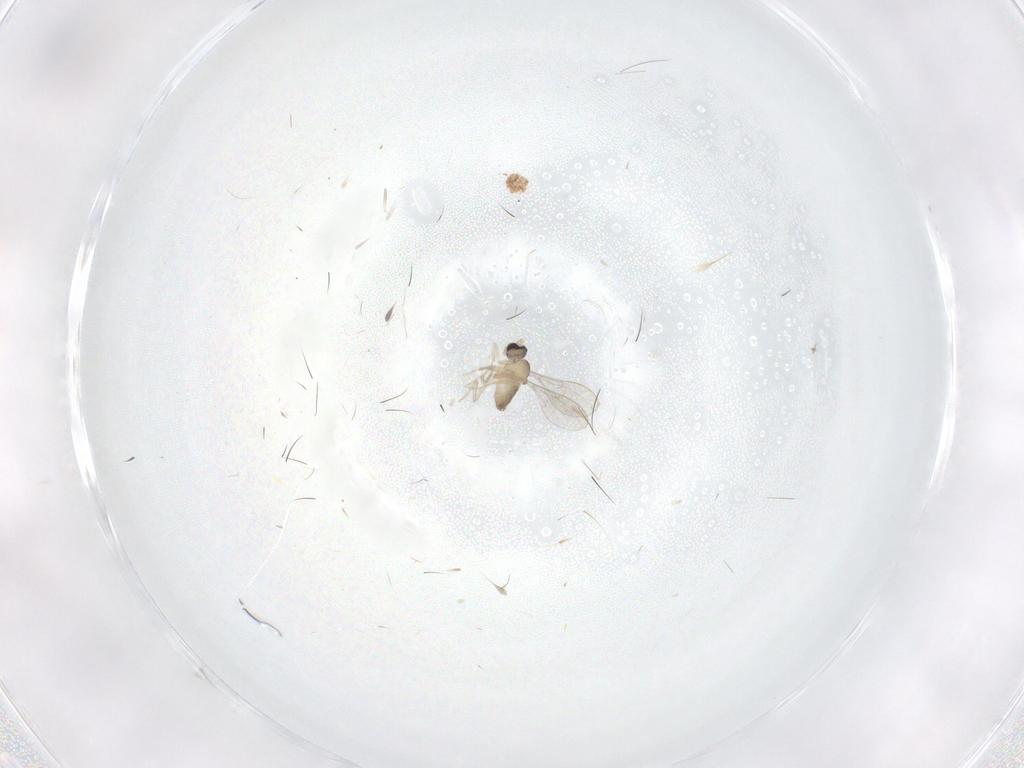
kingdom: Animalia
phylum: Arthropoda
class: Insecta
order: Diptera
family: Cecidomyiidae
